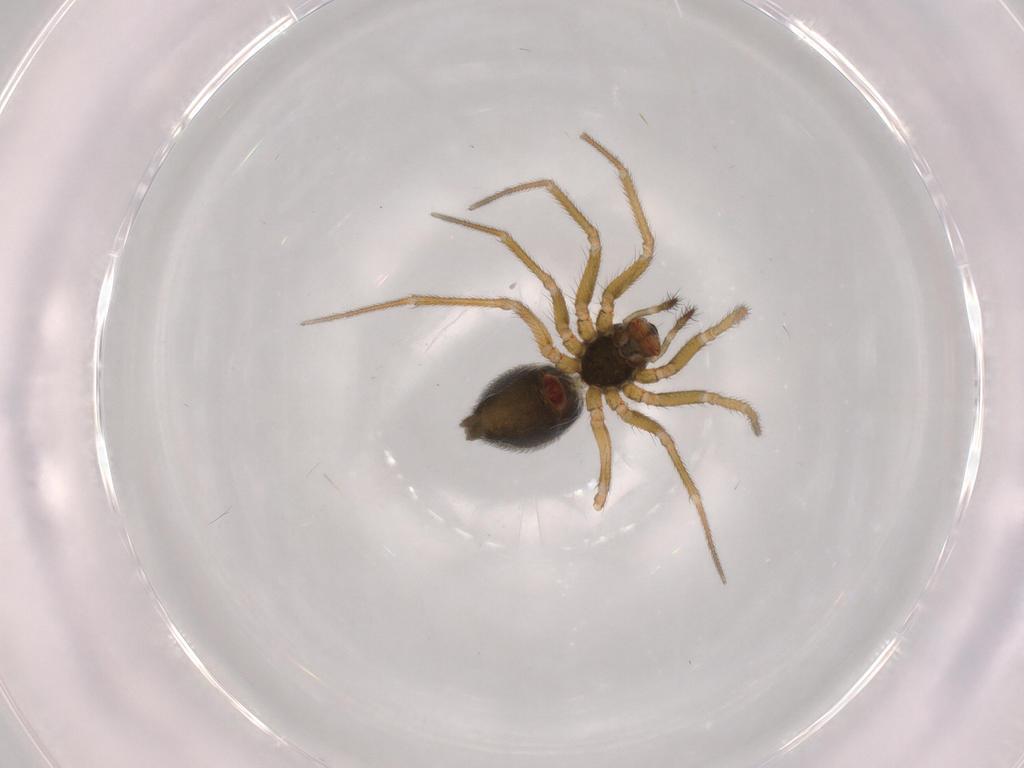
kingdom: Animalia
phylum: Arthropoda
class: Arachnida
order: Araneae
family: Linyphiidae
